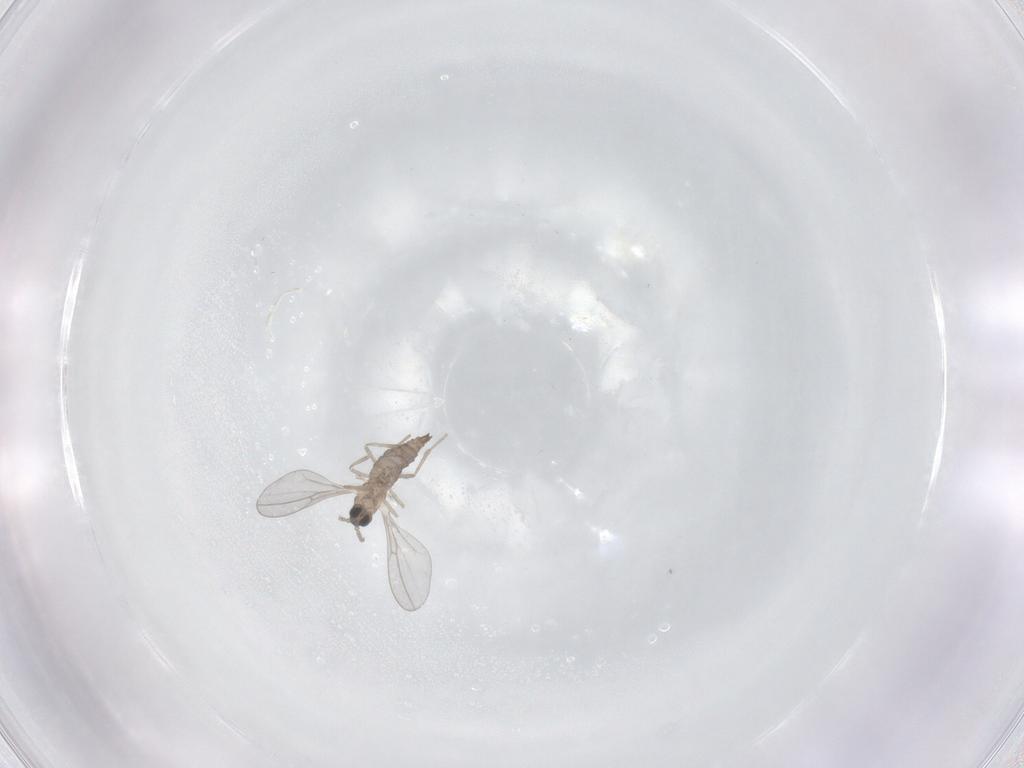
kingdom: Animalia
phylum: Arthropoda
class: Insecta
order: Diptera
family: Cecidomyiidae
